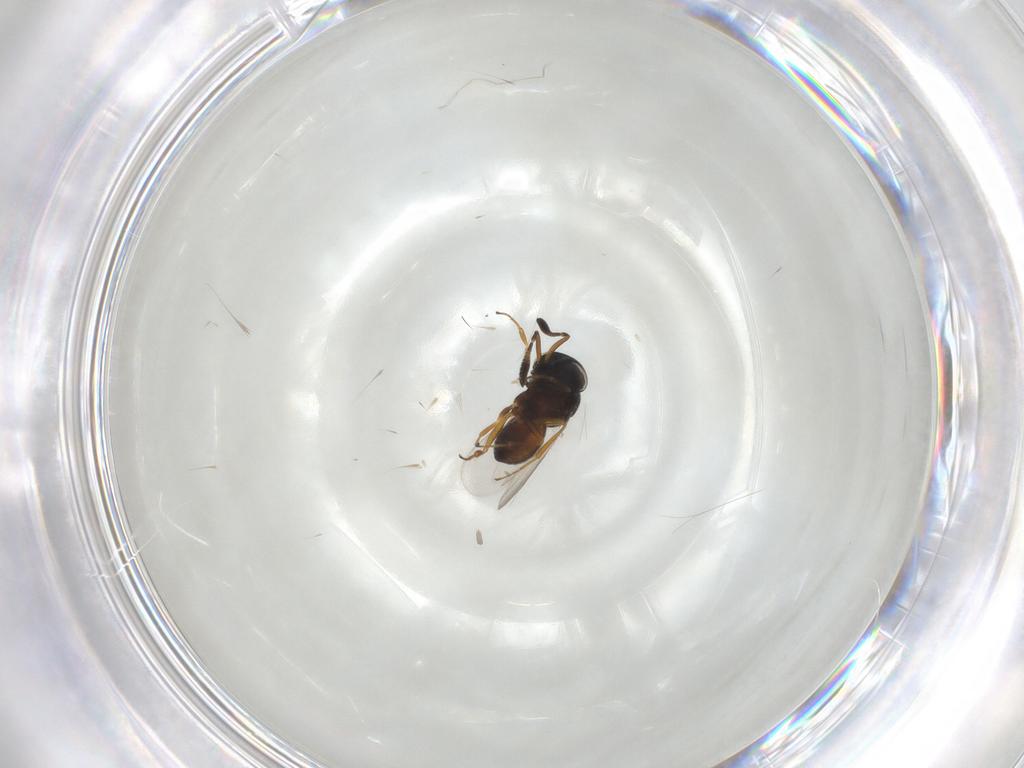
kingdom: Animalia
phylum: Arthropoda
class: Insecta
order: Hymenoptera
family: Scelionidae
